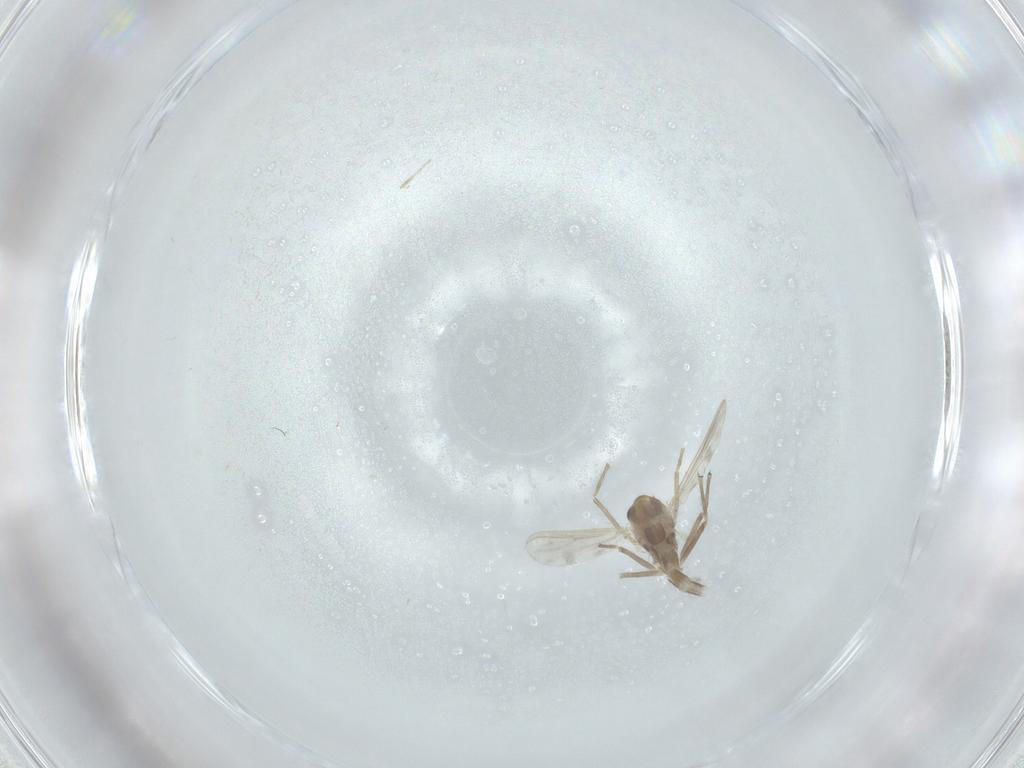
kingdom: Animalia
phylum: Arthropoda
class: Insecta
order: Diptera
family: Chironomidae
